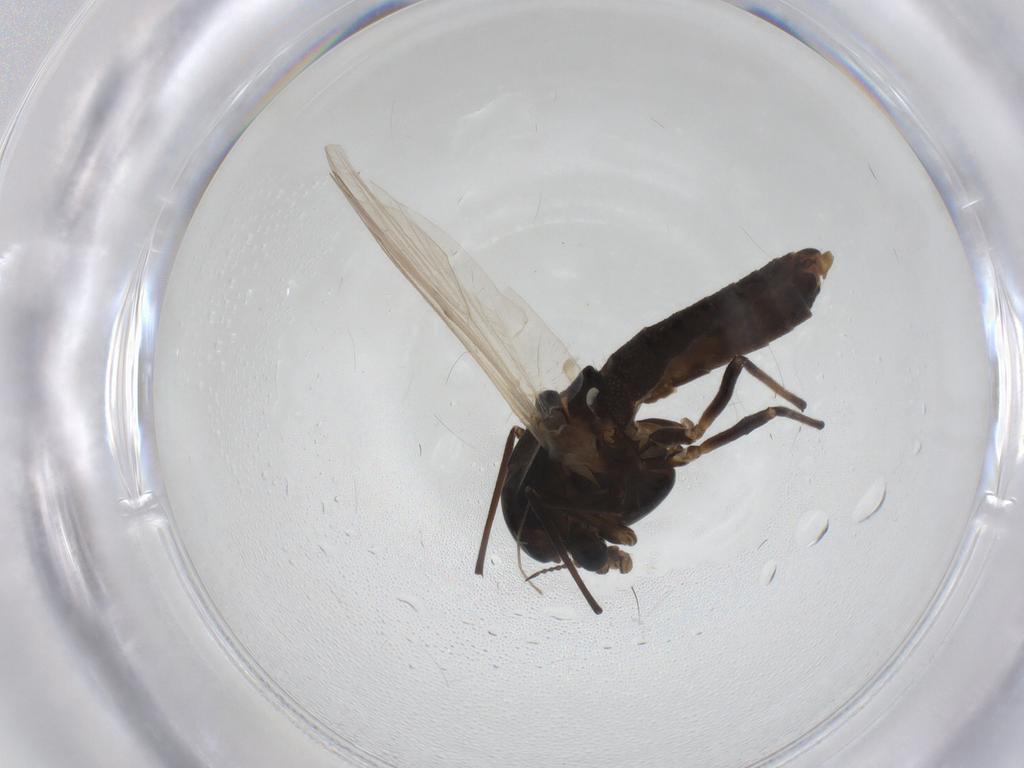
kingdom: Animalia
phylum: Arthropoda
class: Insecta
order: Diptera
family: Chironomidae
